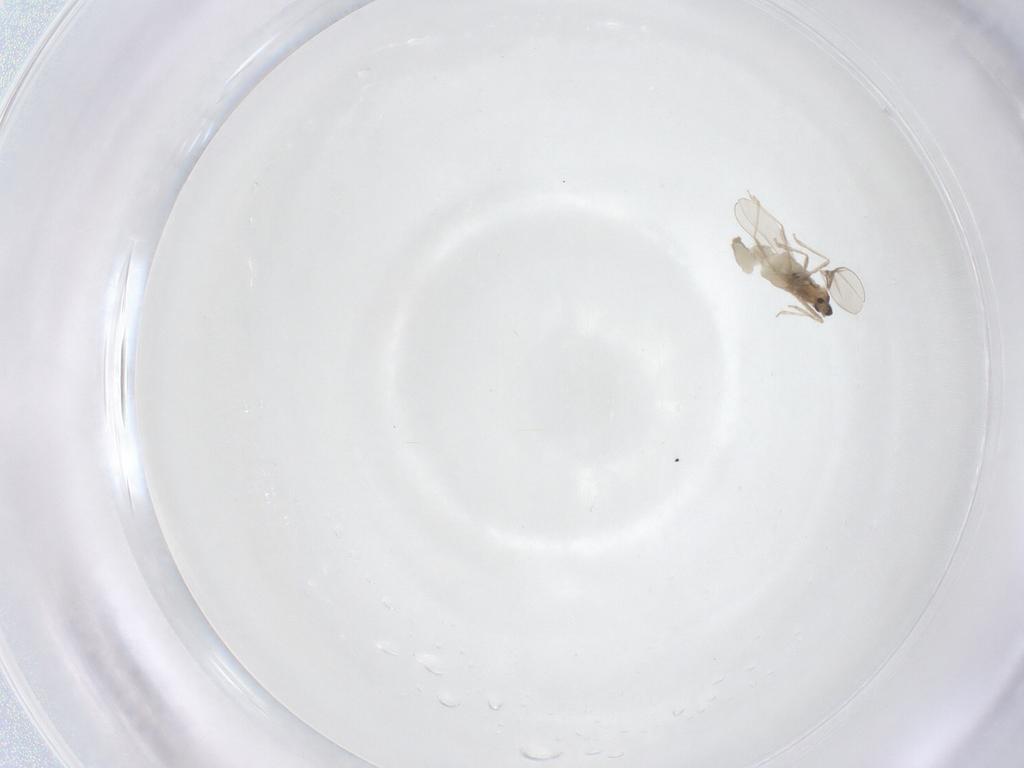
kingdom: Animalia
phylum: Arthropoda
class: Insecta
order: Diptera
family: Cecidomyiidae
